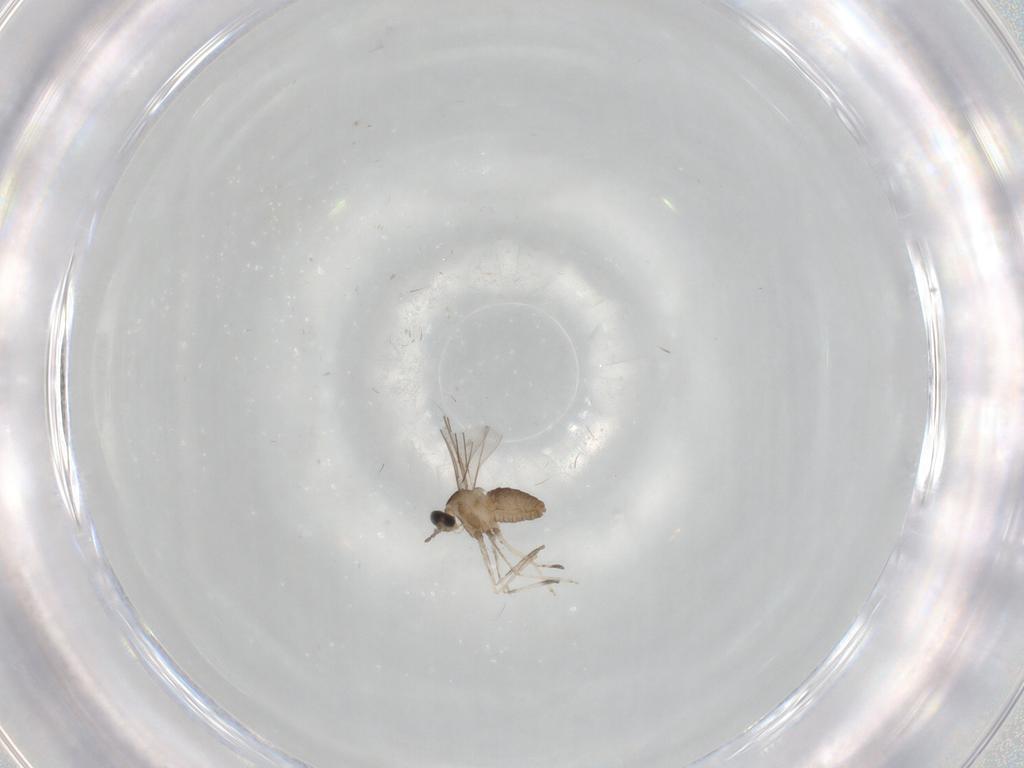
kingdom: Animalia
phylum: Arthropoda
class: Insecta
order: Diptera
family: Cecidomyiidae
